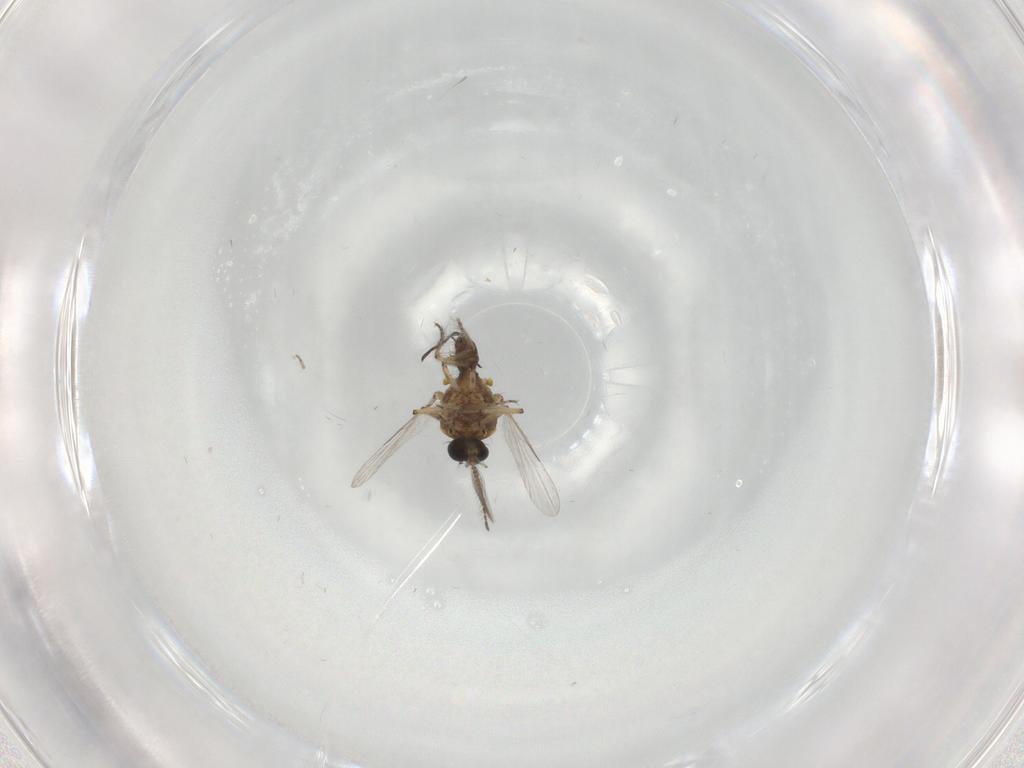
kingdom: Animalia
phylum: Arthropoda
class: Insecta
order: Diptera
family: Ceratopogonidae
